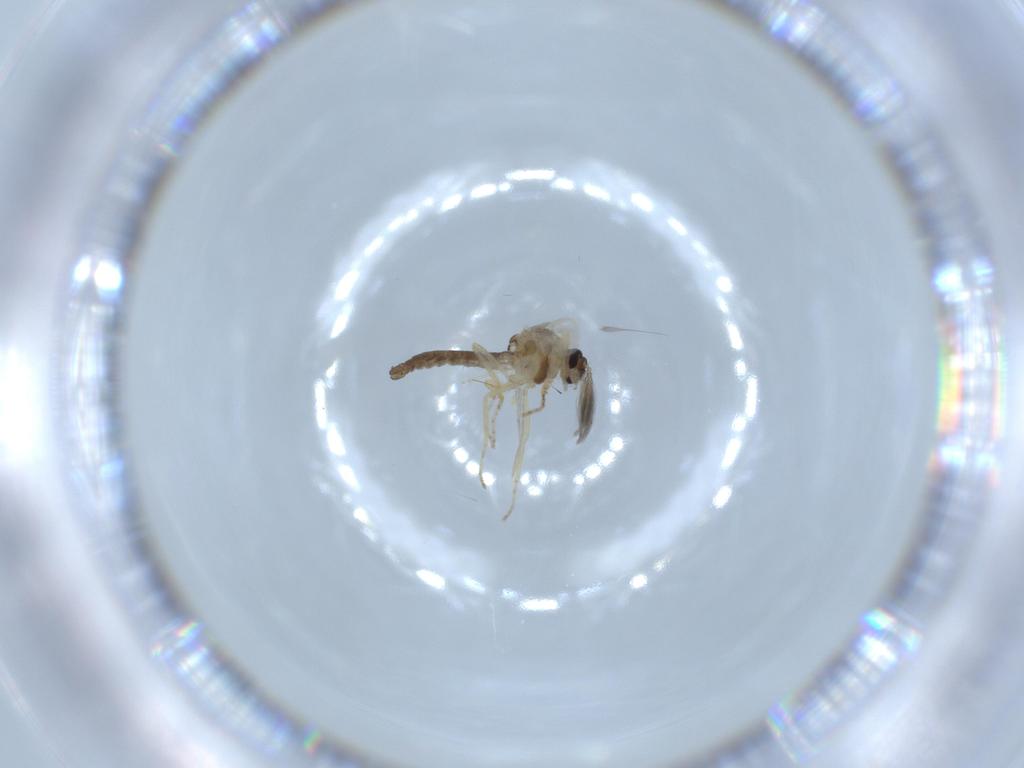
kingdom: Animalia
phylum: Arthropoda
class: Insecta
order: Diptera
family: Ceratopogonidae
